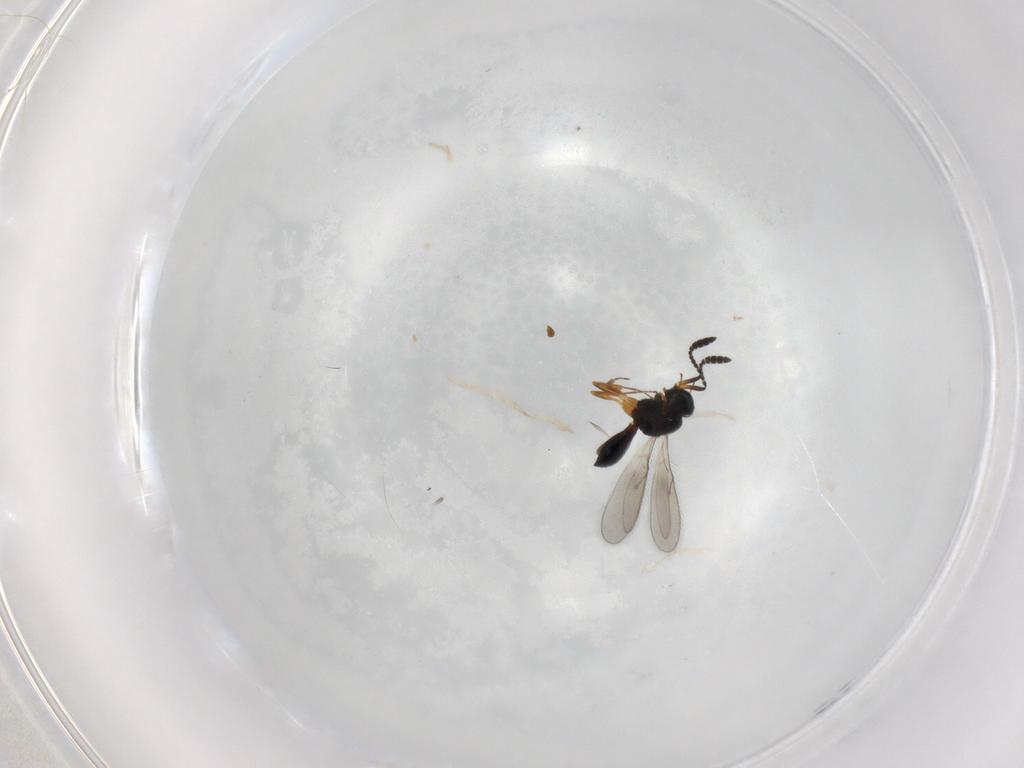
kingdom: Animalia
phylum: Arthropoda
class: Insecta
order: Hymenoptera
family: Scelionidae
